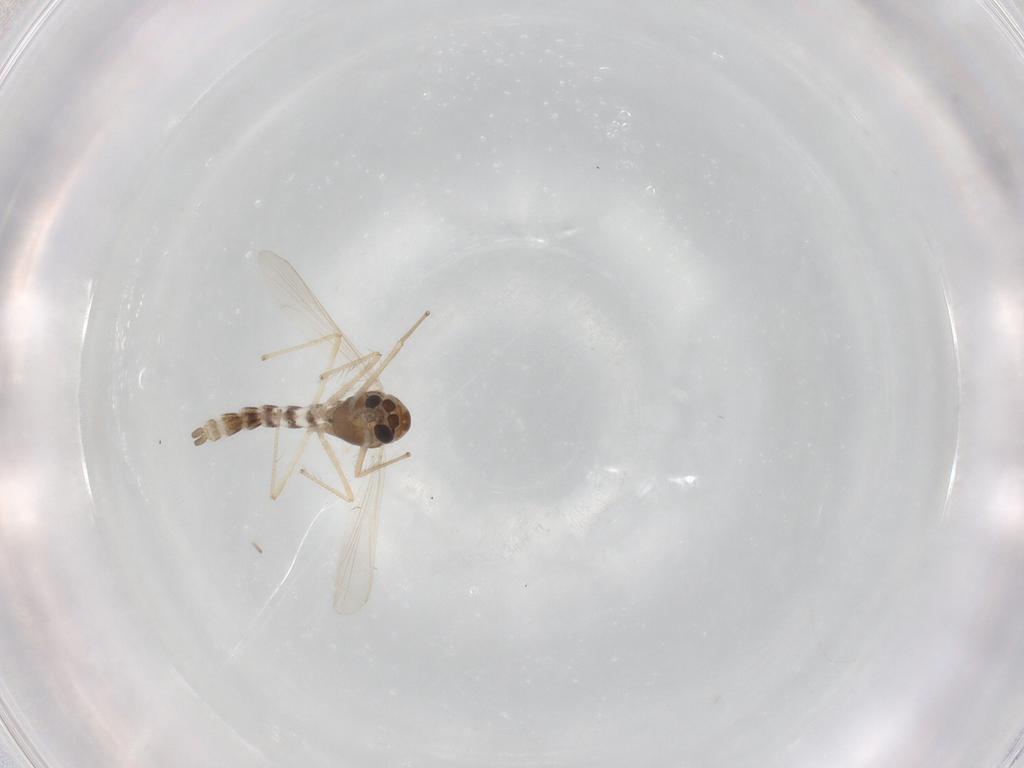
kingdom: Animalia
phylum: Arthropoda
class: Insecta
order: Diptera
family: Chironomidae
